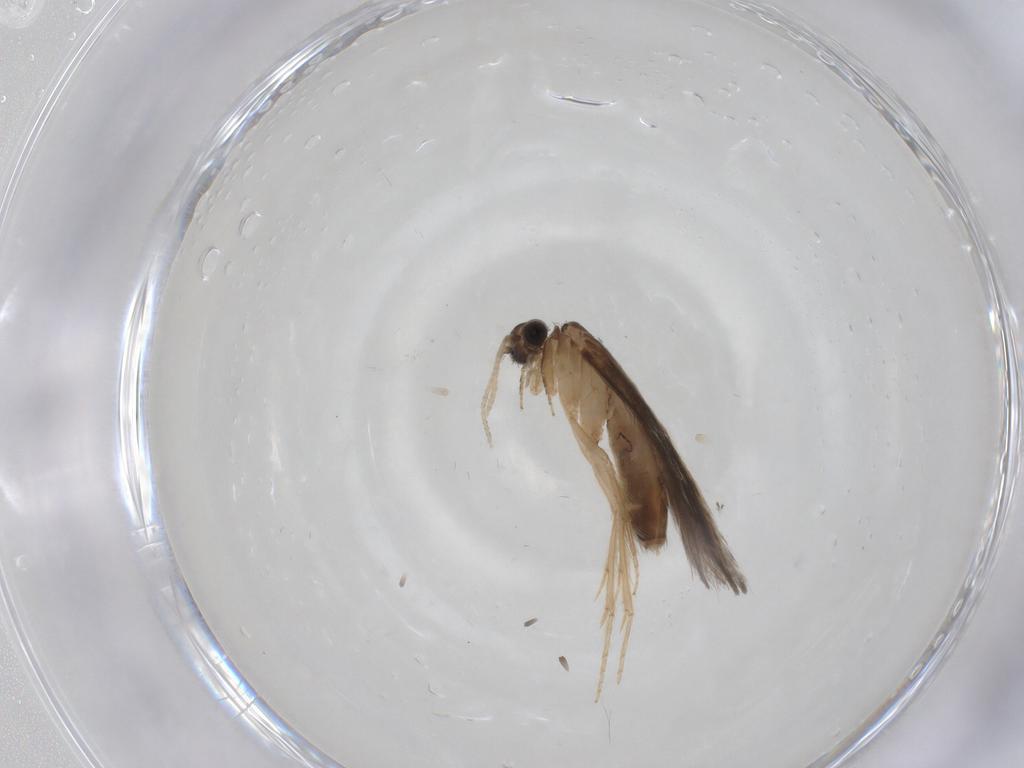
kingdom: Animalia
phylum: Arthropoda
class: Insecta
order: Trichoptera
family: Hydroptilidae
